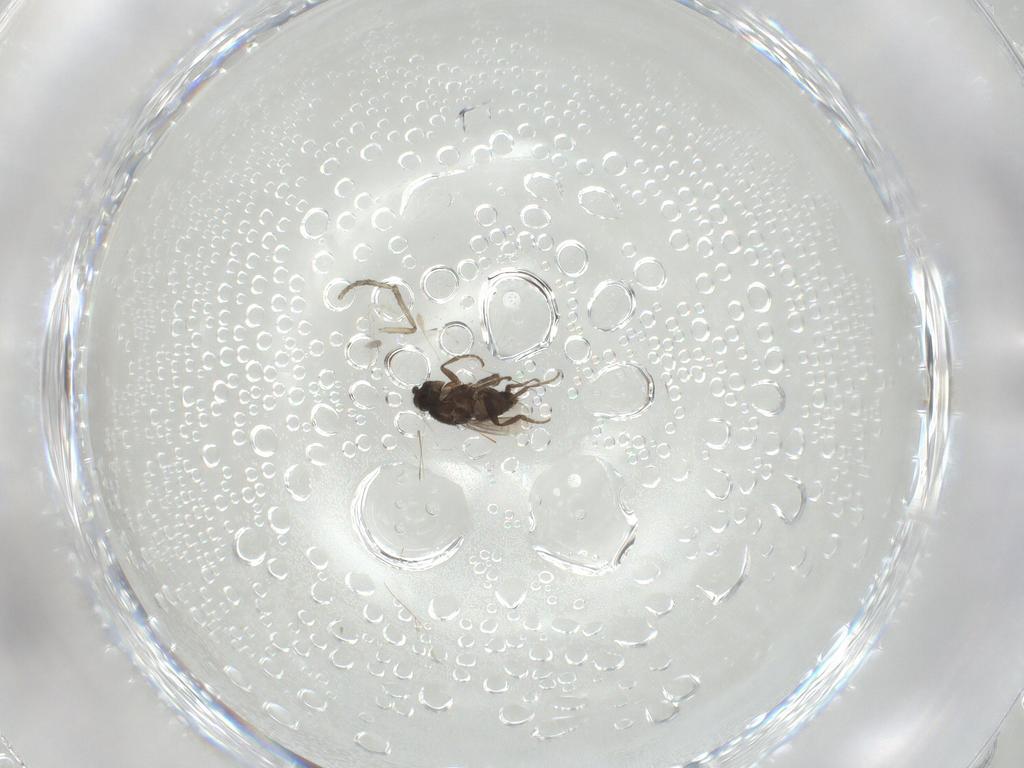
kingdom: Animalia
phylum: Arthropoda
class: Insecta
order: Diptera
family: Cecidomyiidae
